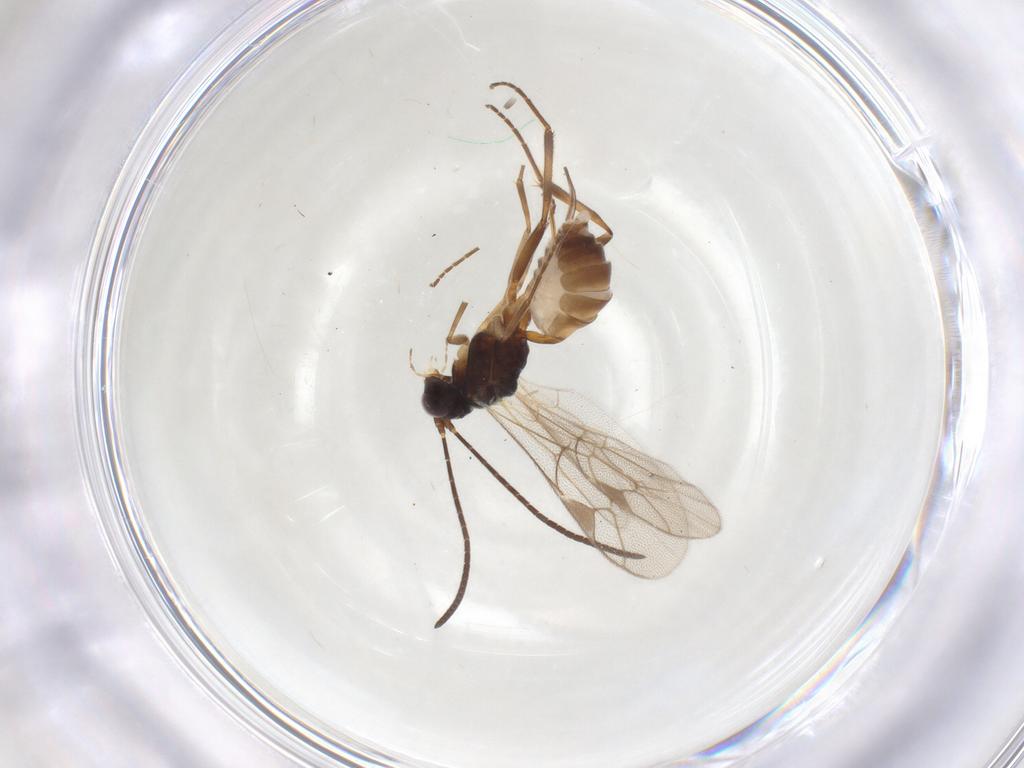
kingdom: Animalia
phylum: Arthropoda
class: Insecta
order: Hymenoptera
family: Ichneumonidae
